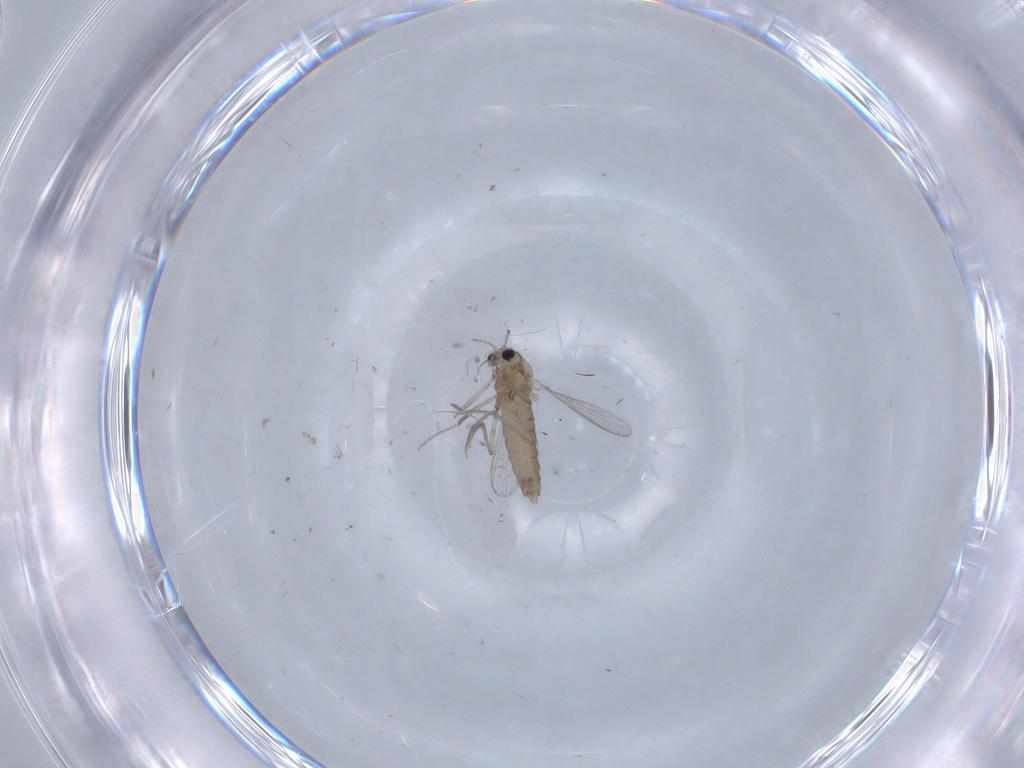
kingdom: Animalia
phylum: Arthropoda
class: Insecta
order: Diptera
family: Chironomidae
